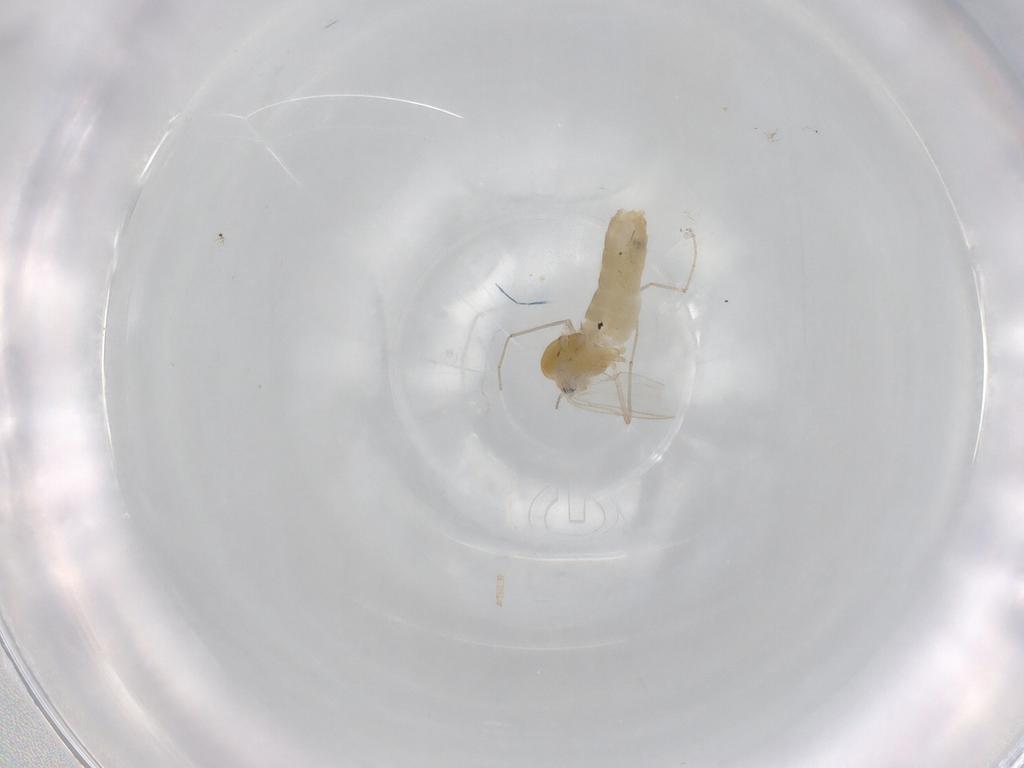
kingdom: Animalia
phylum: Arthropoda
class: Insecta
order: Diptera
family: Chironomidae
